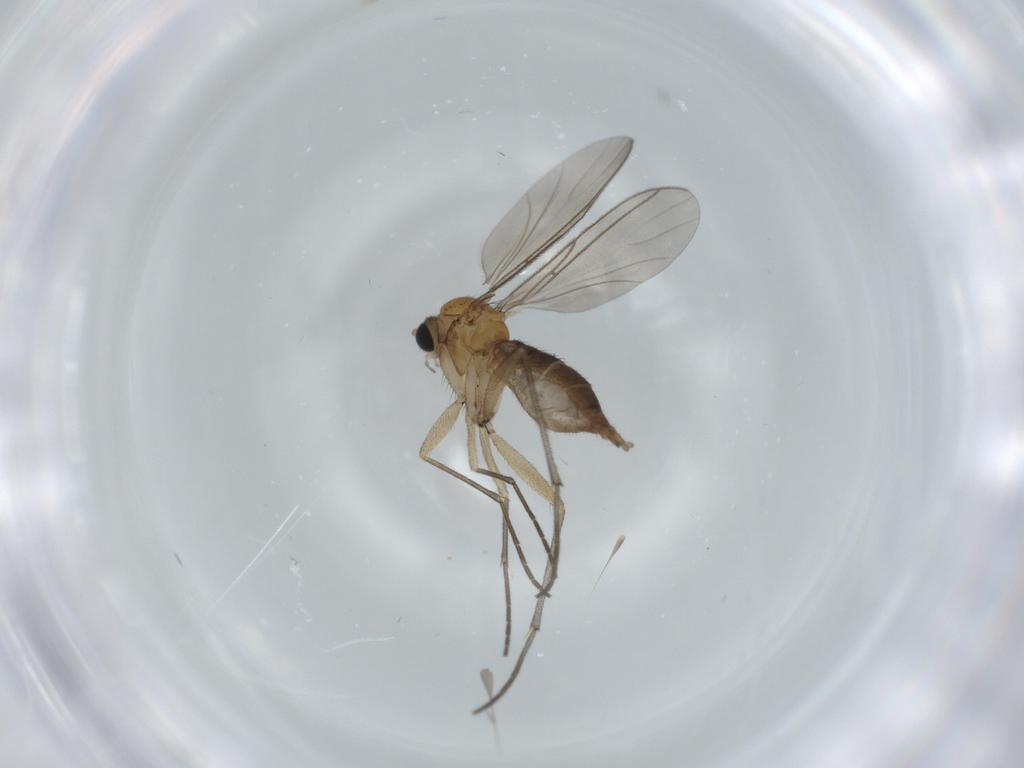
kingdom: Animalia
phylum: Arthropoda
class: Insecta
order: Diptera
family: Sciaridae
